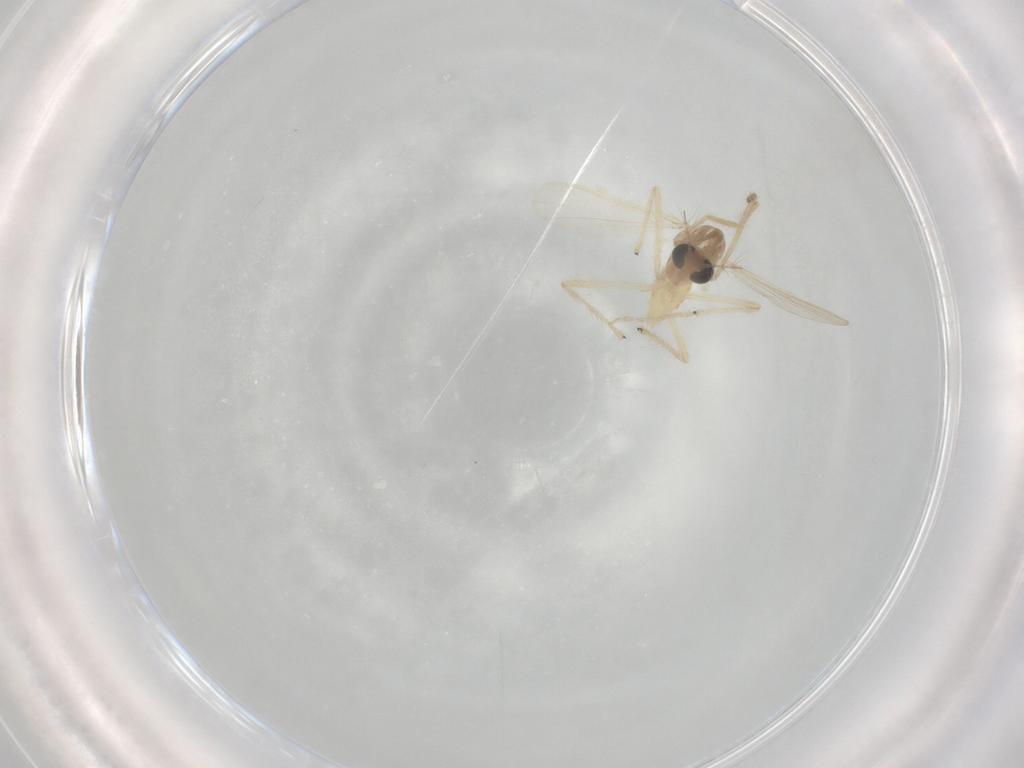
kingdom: Animalia
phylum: Arthropoda
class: Insecta
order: Diptera
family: Chironomidae
